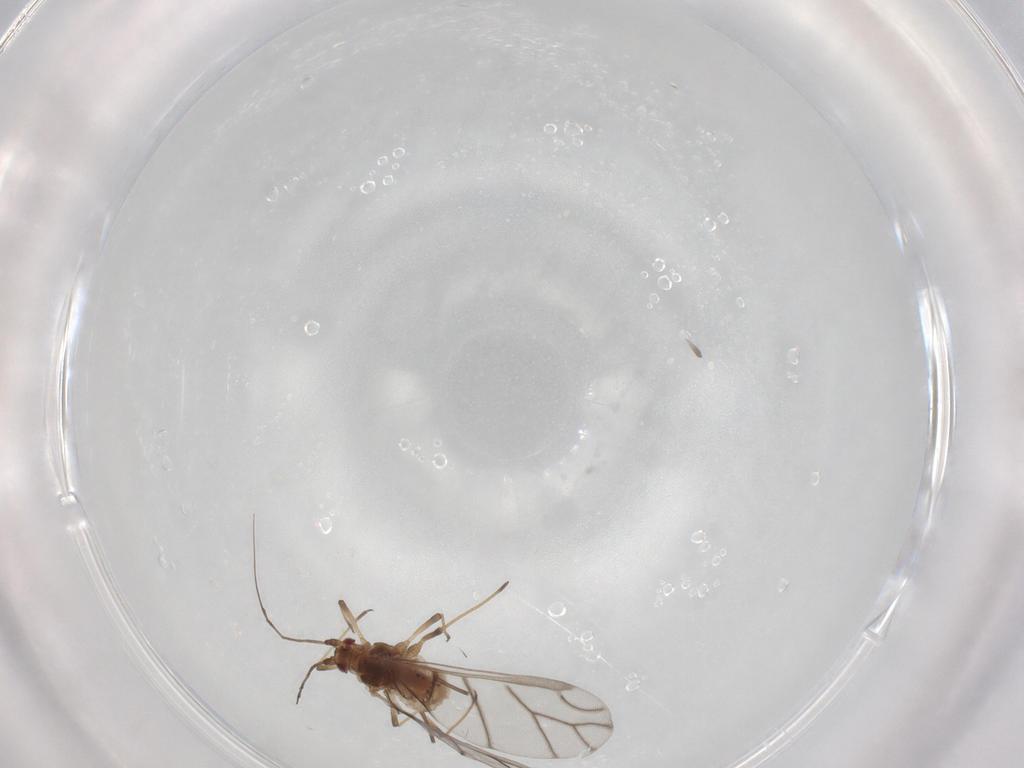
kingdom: Animalia
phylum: Arthropoda
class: Insecta
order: Hemiptera
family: Aphididae
